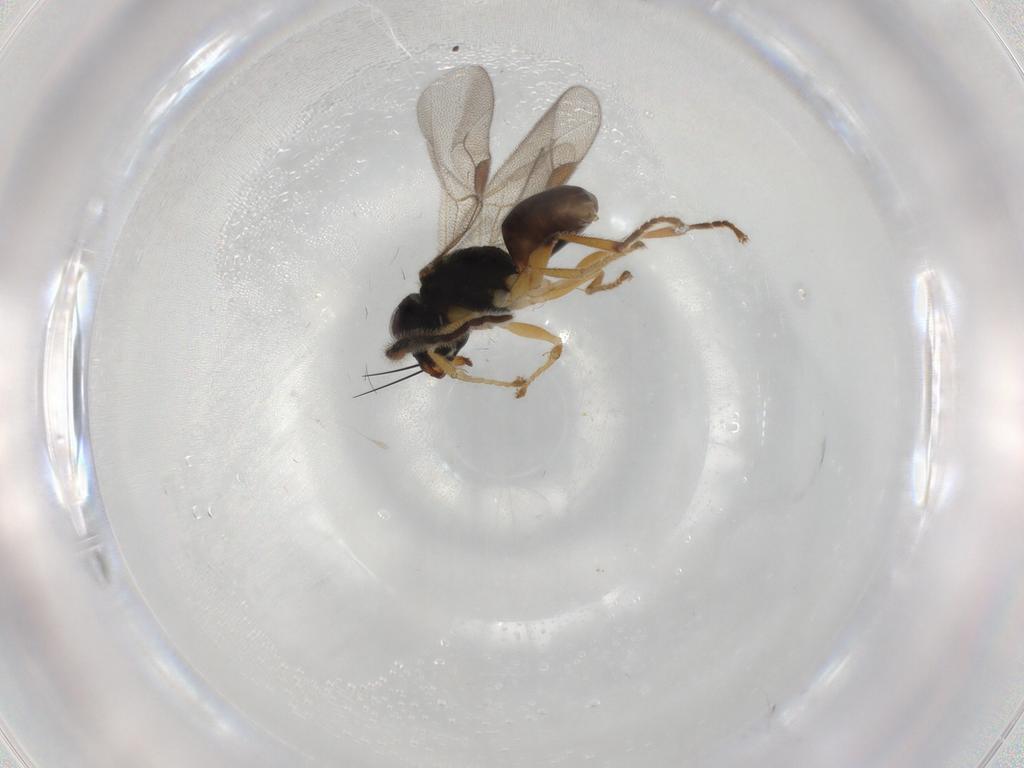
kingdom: Animalia
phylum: Arthropoda
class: Insecta
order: Hymenoptera
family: Dryinidae
